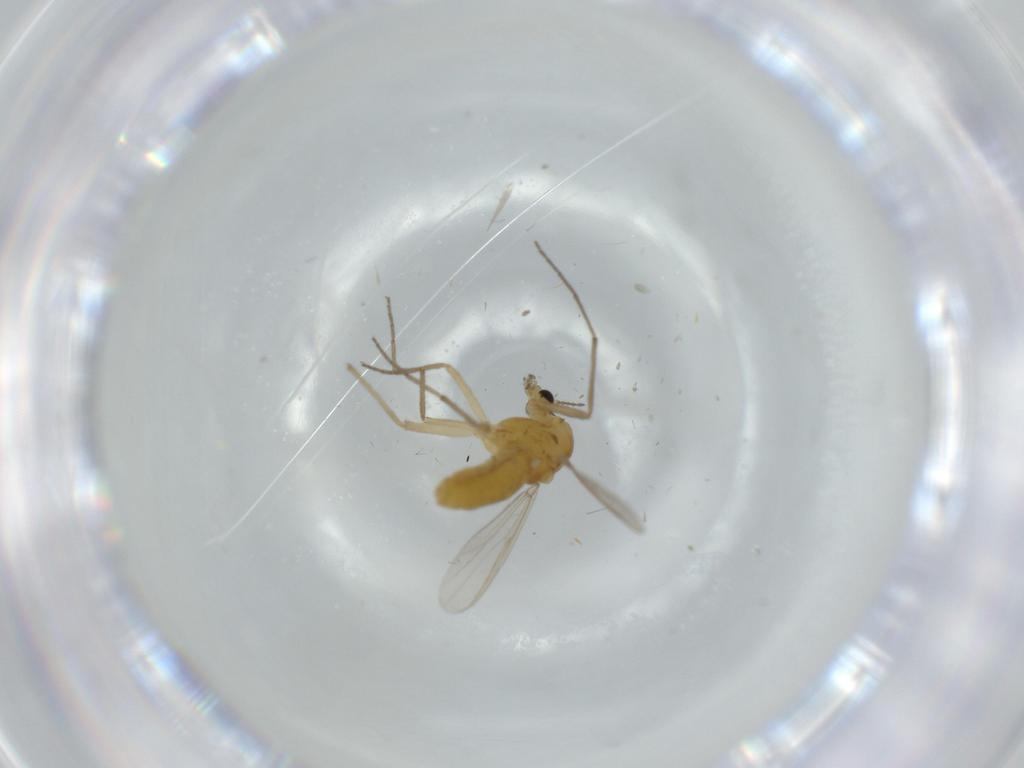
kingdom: Animalia
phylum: Arthropoda
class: Insecta
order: Diptera
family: Chironomidae
